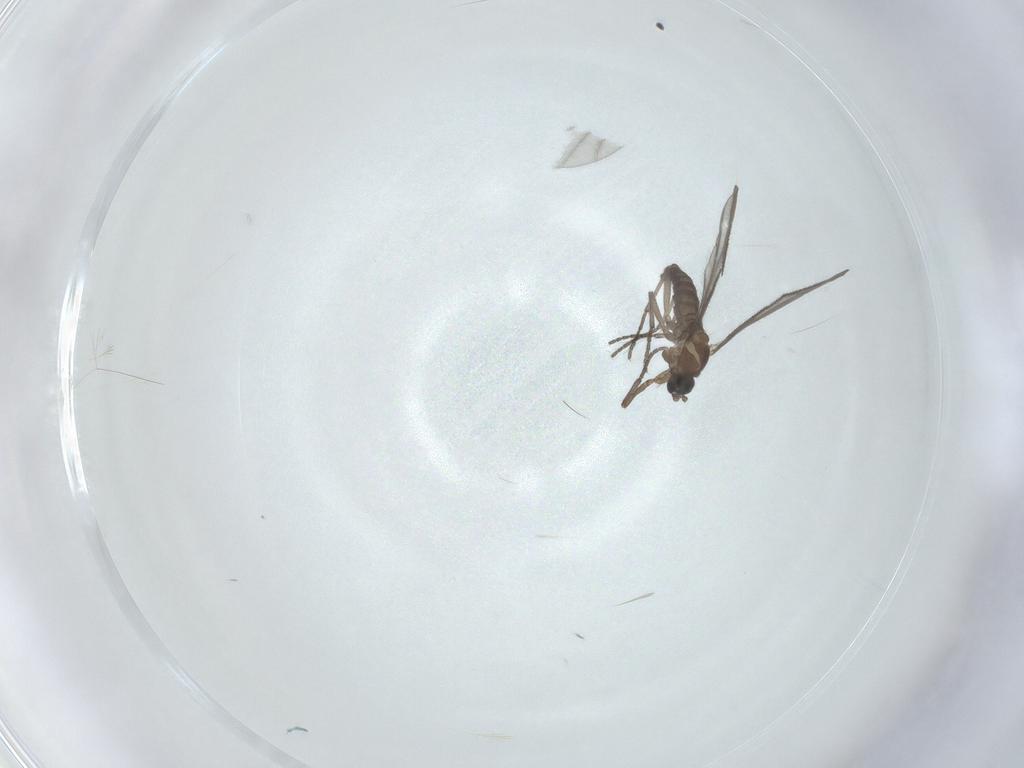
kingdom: Animalia
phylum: Arthropoda
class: Insecta
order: Diptera
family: Sciaridae
